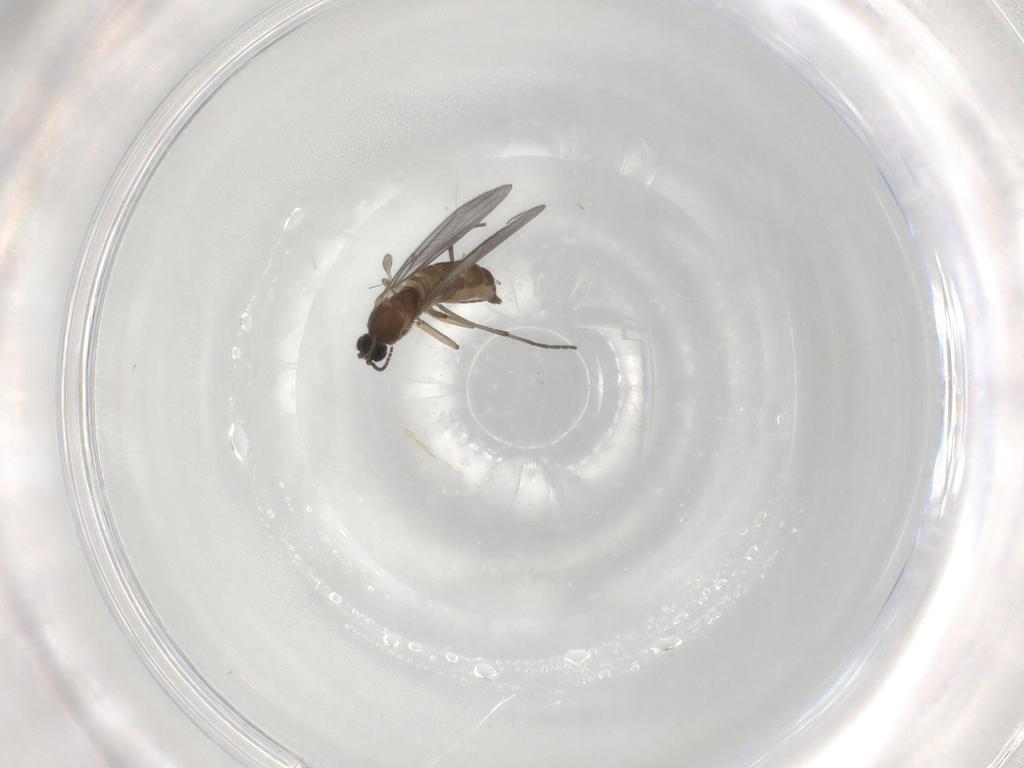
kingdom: Animalia
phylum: Arthropoda
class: Insecta
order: Diptera
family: Sciaridae
